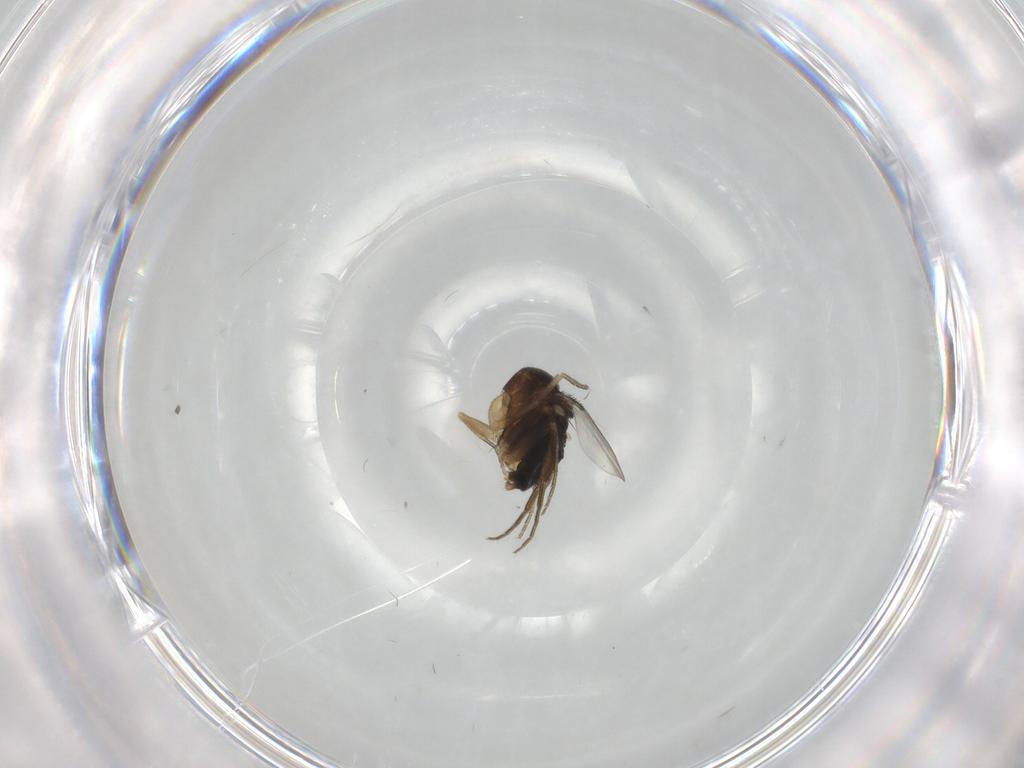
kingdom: Animalia
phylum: Arthropoda
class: Insecta
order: Diptera
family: Phoridae
